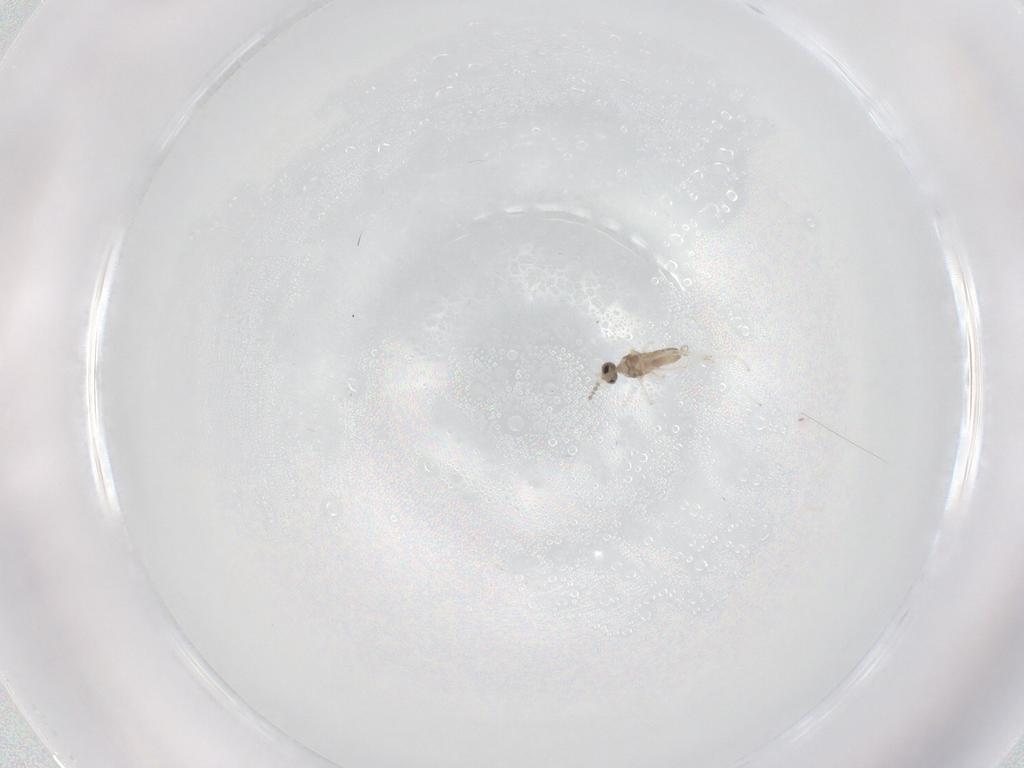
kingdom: Animalia
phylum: Arthropoda
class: Insecta
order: Diptera
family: Cecidomyiidae
